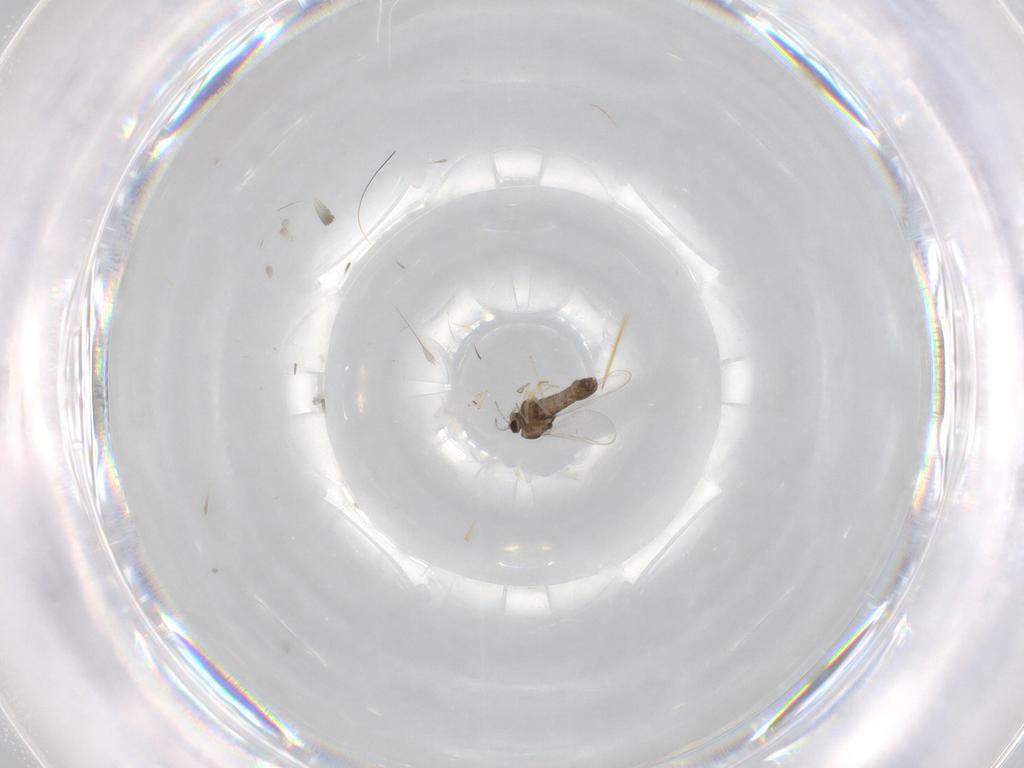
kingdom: Animalia
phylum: Arthropoda
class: Insecta
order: Diptera
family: Chironomidae
